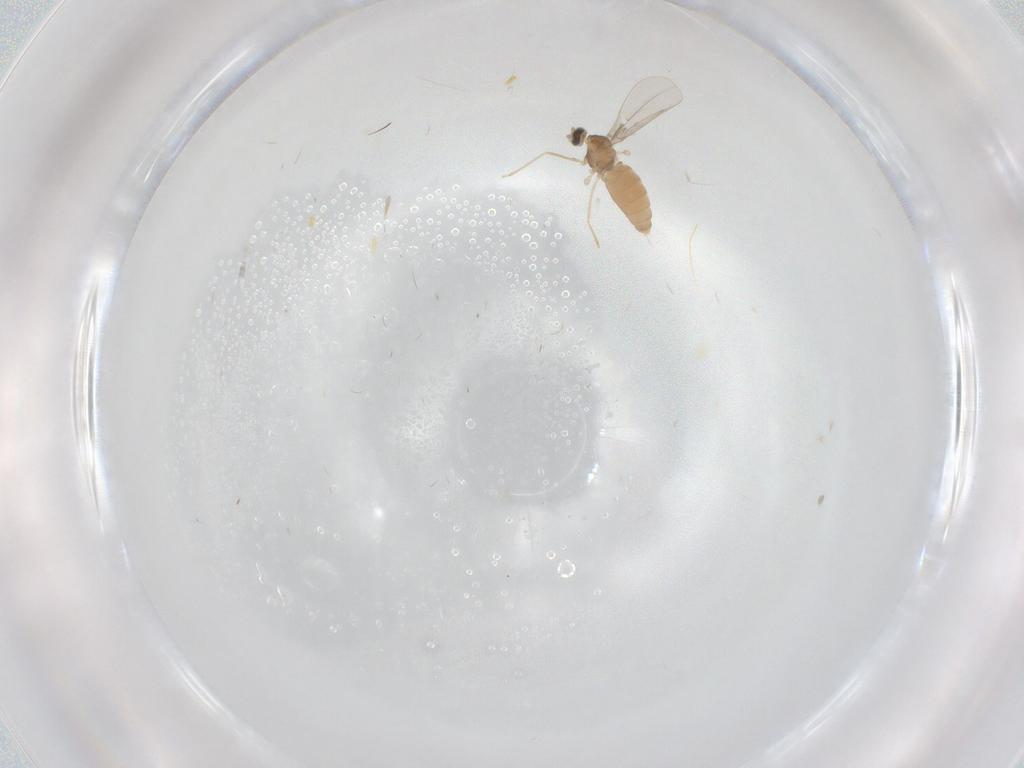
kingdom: Animalia
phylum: Arthropoda
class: Insecta
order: Diptera
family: Cecidomyiidae
